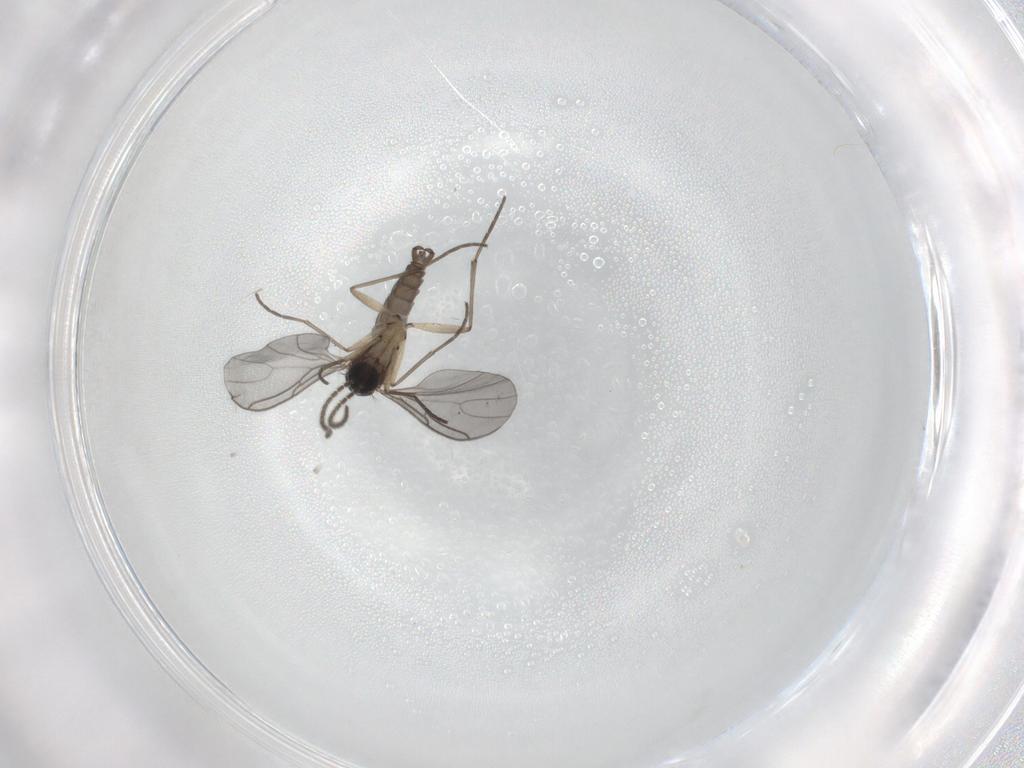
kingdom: Animalia
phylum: Arthropoda
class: Insecta
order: Diptera
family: Sciaridae
